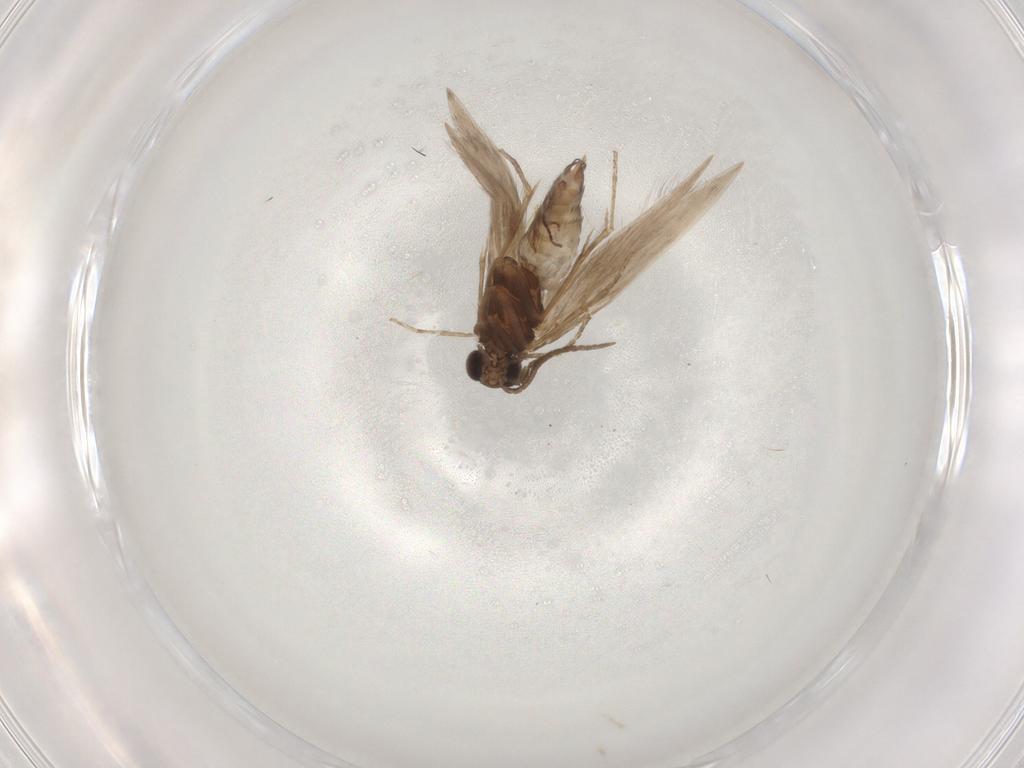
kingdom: Animalia
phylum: Arthropoda
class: Insecta
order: Trichoptera
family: Hydroptilidae
